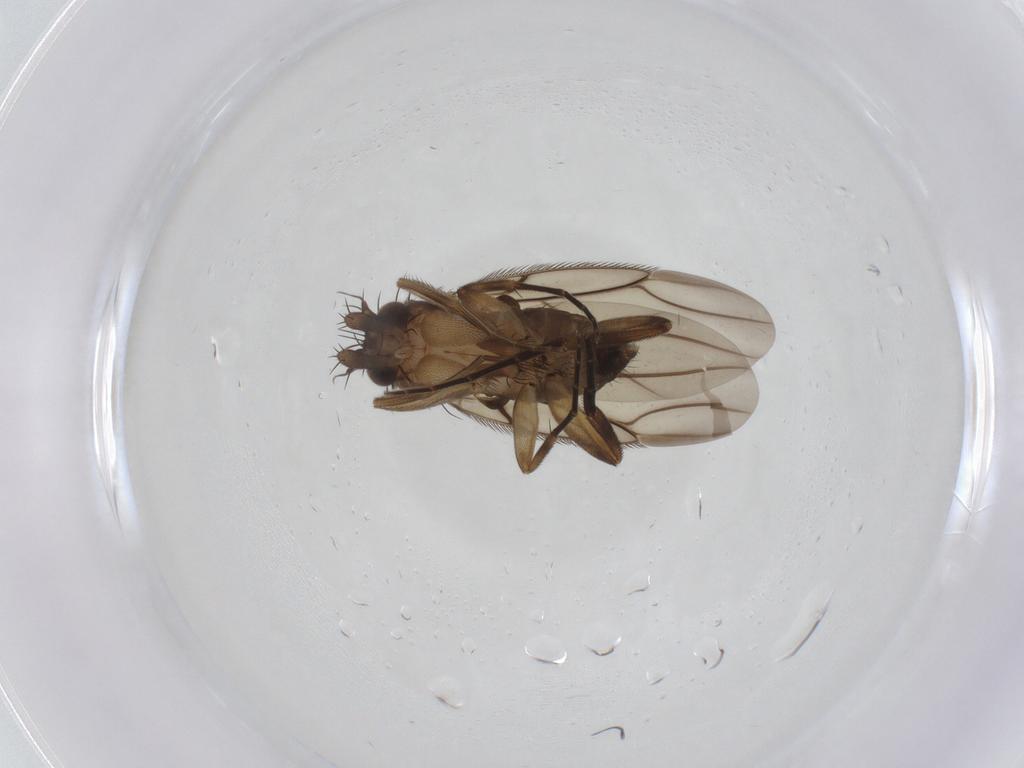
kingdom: Animalia
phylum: Arthropoda
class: Insecta
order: Diptera
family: Phoridae
